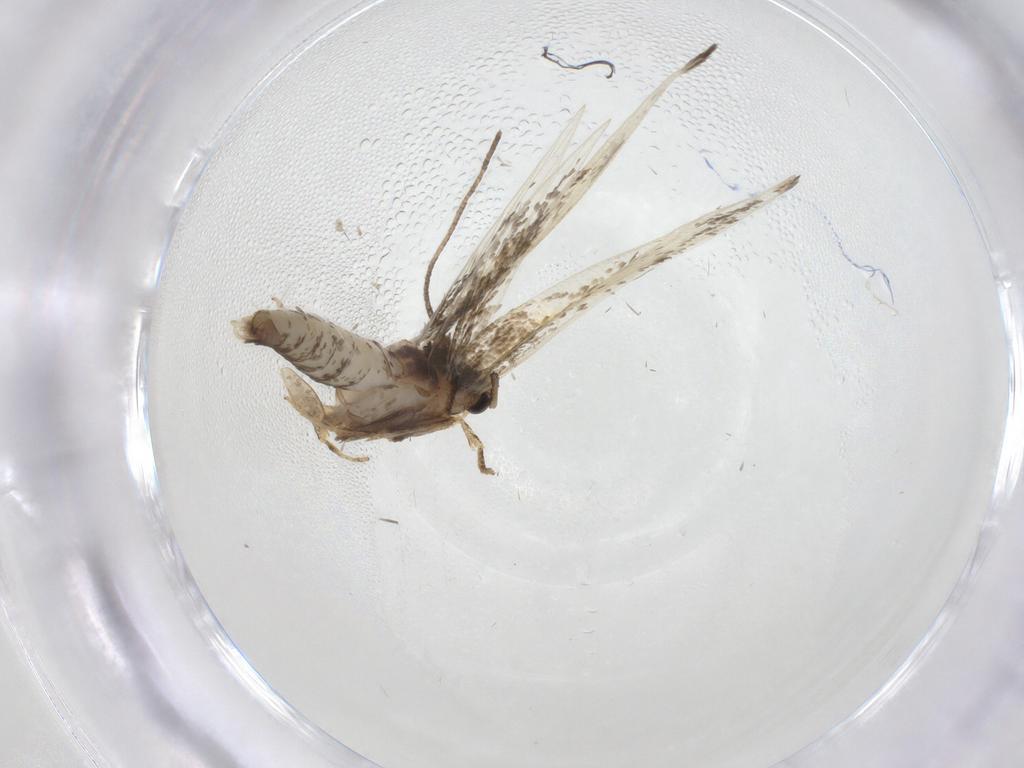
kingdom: Animalia
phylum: Arthropoda
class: Insecta
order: Lepidoptera
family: Tineidae
